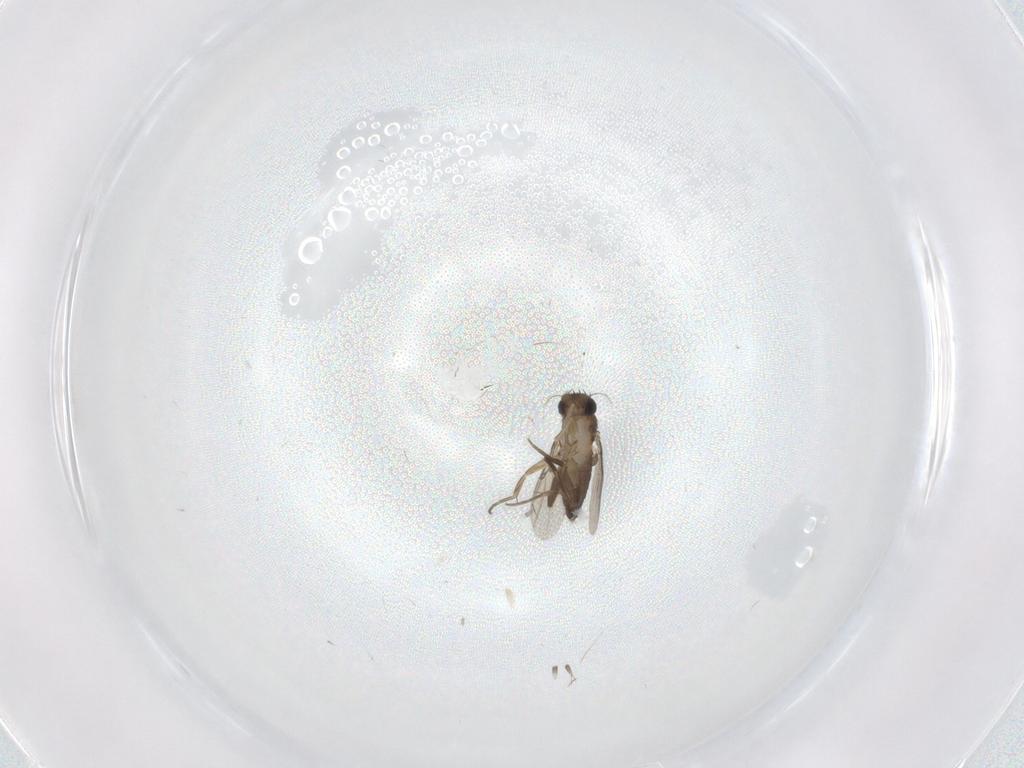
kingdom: Animalia
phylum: Arthropoda
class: Insecta
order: Diptera
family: Phoridae
